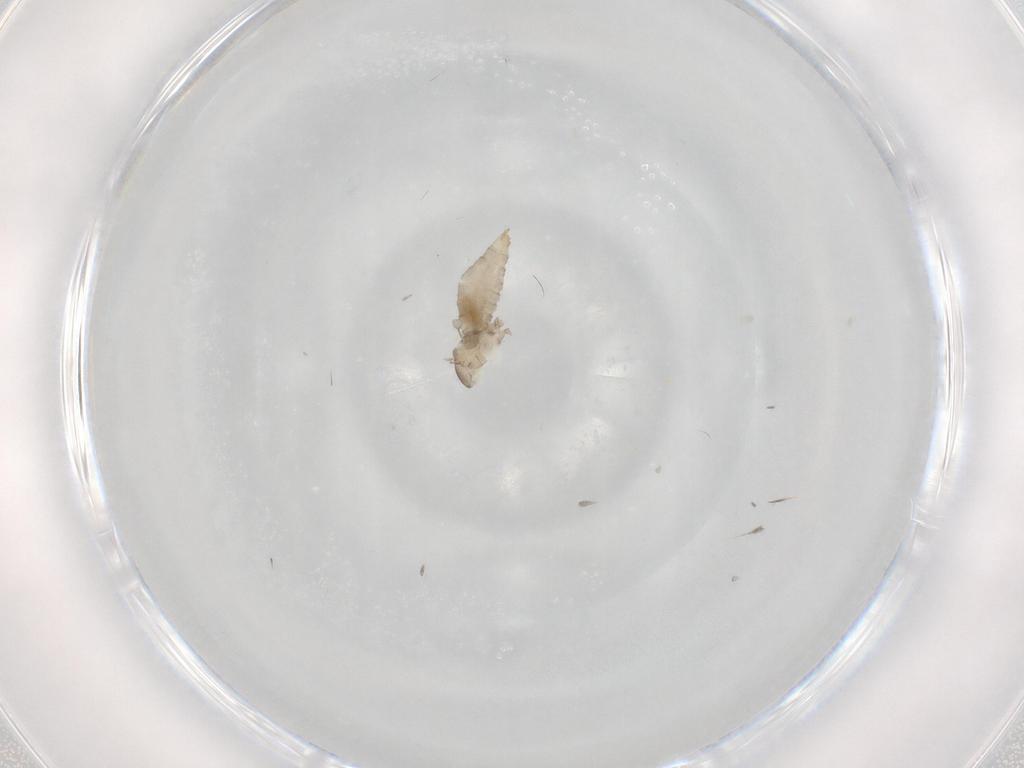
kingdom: Animalia
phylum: Arthropoda
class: Insecta
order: Diptera
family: Cecidomyiidae
